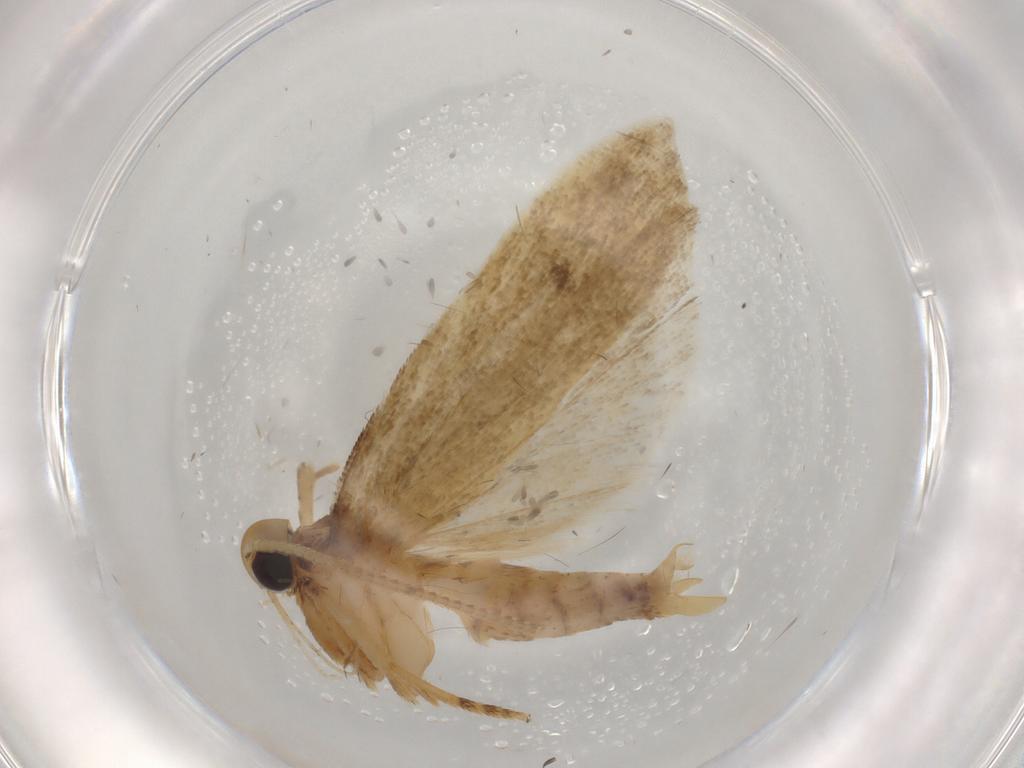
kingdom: Animalia
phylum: Arthropoda
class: Insecta
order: Lepidoptera
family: Autostichidae
